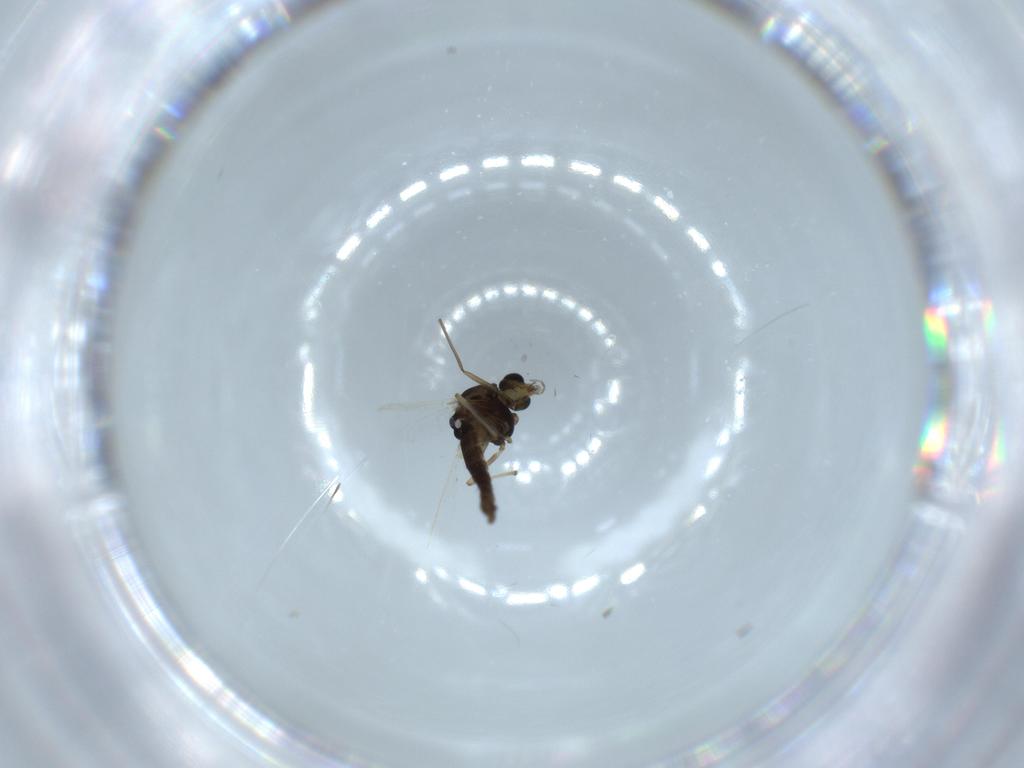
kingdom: Animalia
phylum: Arthropoda
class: Insecta
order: Diptera
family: Chironomidae
